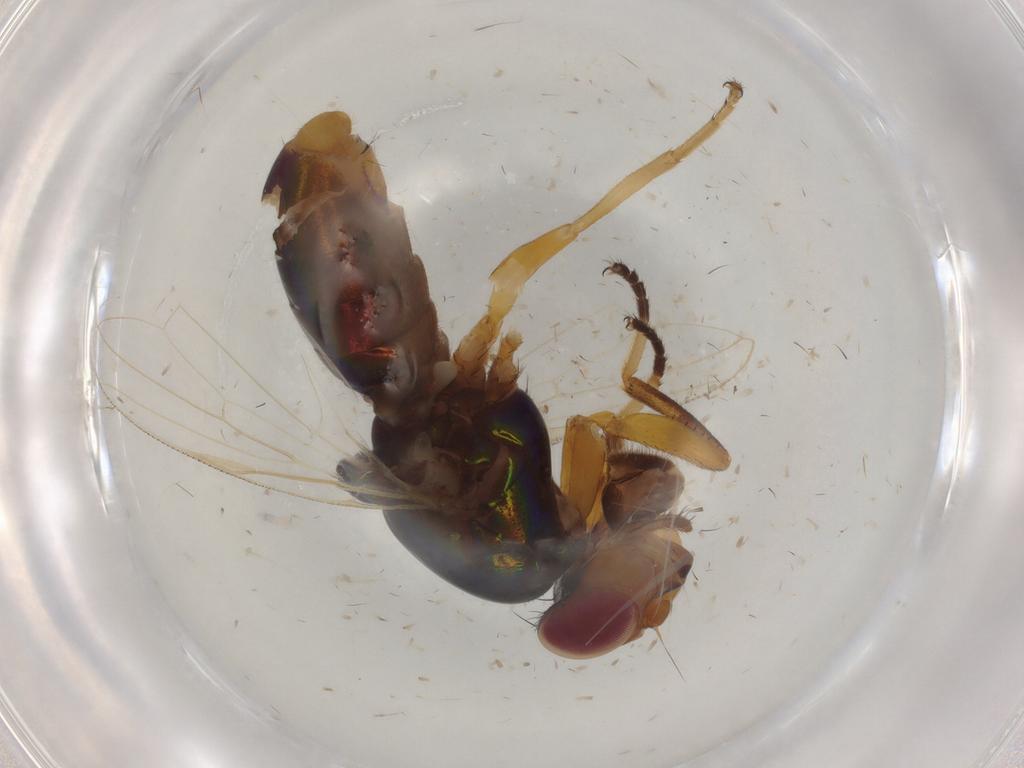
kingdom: Animalia
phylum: Arthropoda
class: Insecta
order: Diptera
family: Ulidiidae
